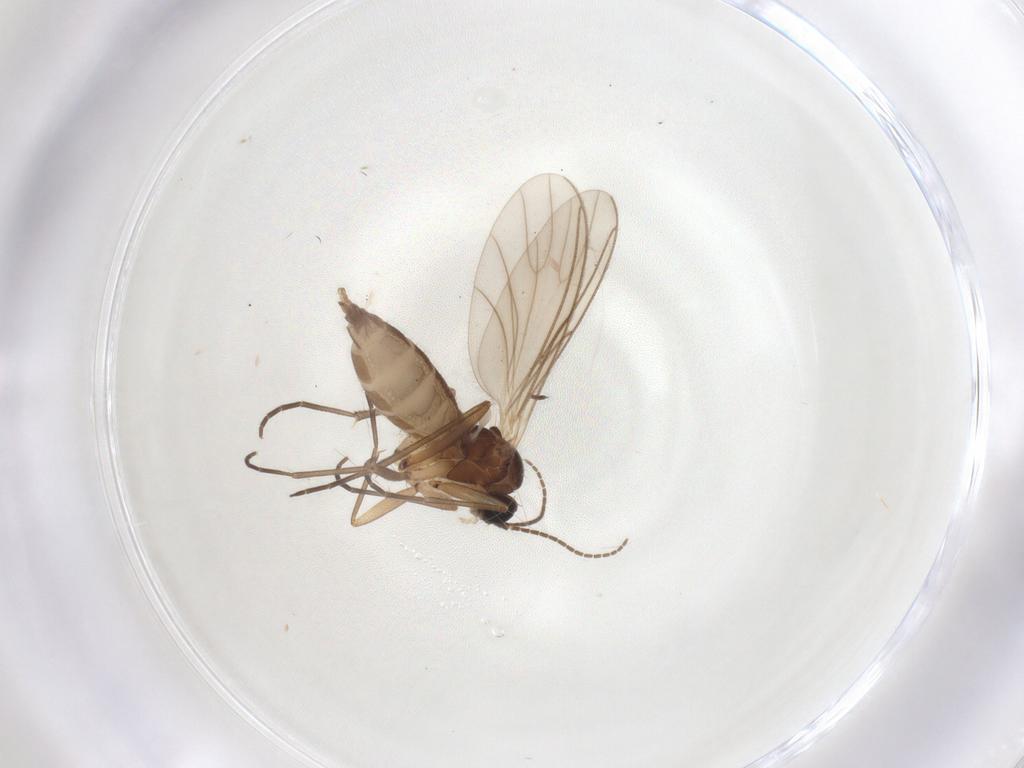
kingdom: Animalia
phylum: Arthropoda
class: Insecta
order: Diptera
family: Sciaridae
